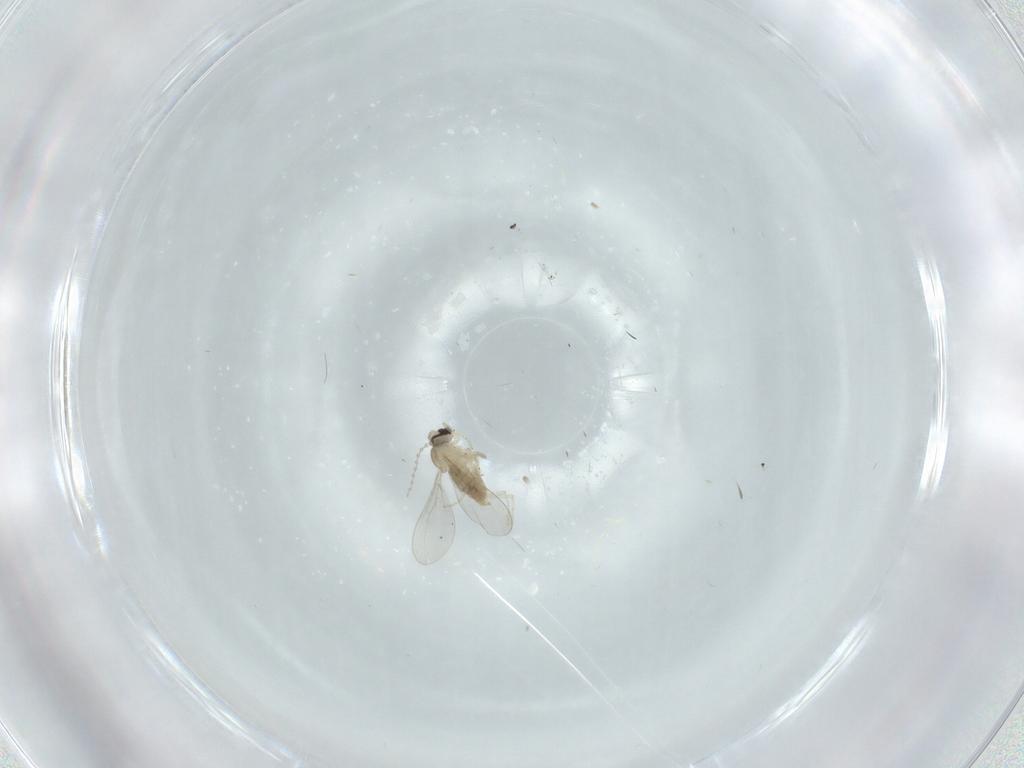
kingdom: Animalia
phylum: Arthropoda
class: Insecta
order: Diptera
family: Cecidomyiidae
